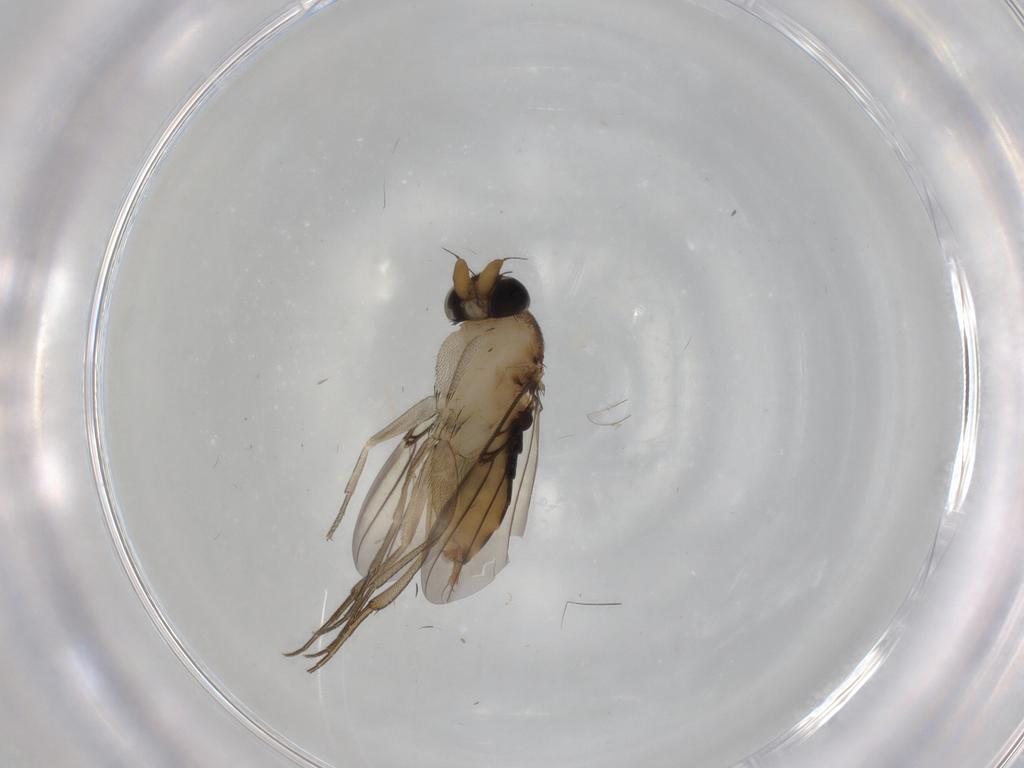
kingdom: Animalia
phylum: Arthropoda
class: Insecta
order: Diptera
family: Phoridae
